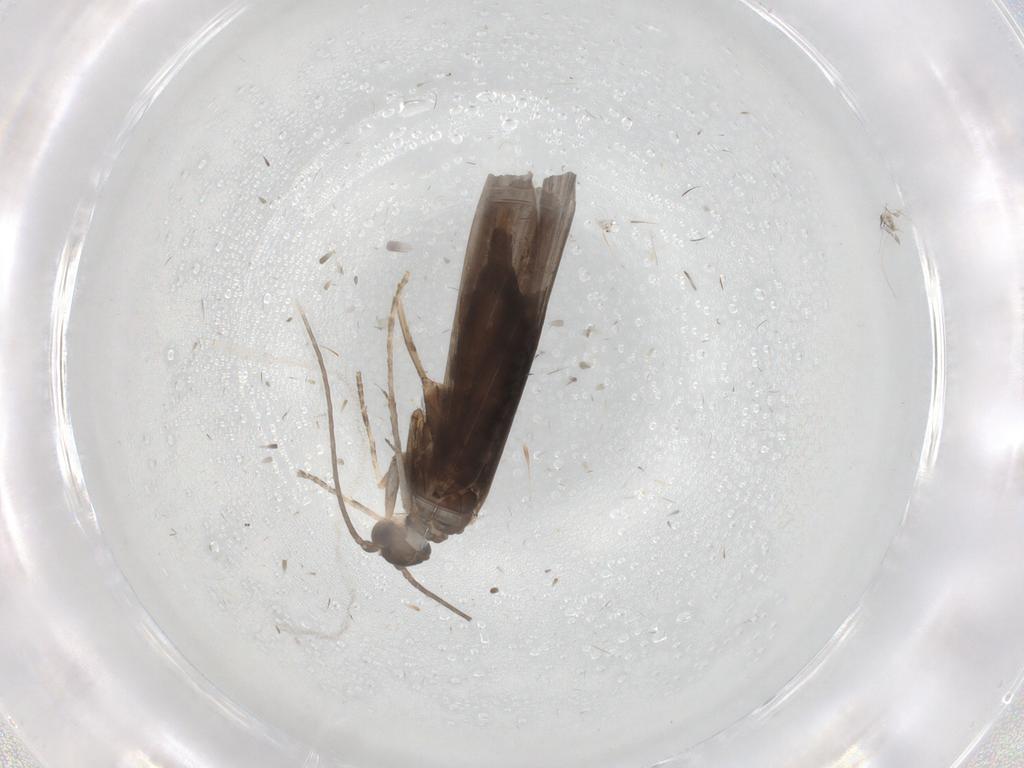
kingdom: Animalia
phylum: Arthropoda
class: Insecta
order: Trichoptera
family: Xiphocentronidae
